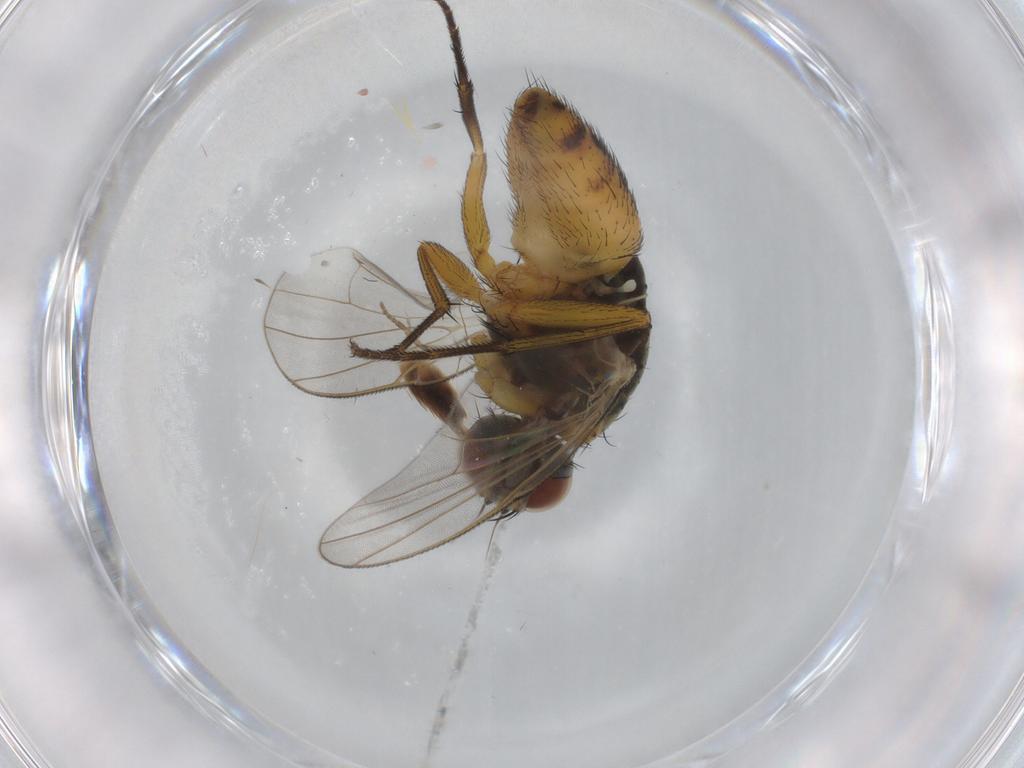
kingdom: Animalia
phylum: Arthropoda
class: Insecta
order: Diptera
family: Muscidae
